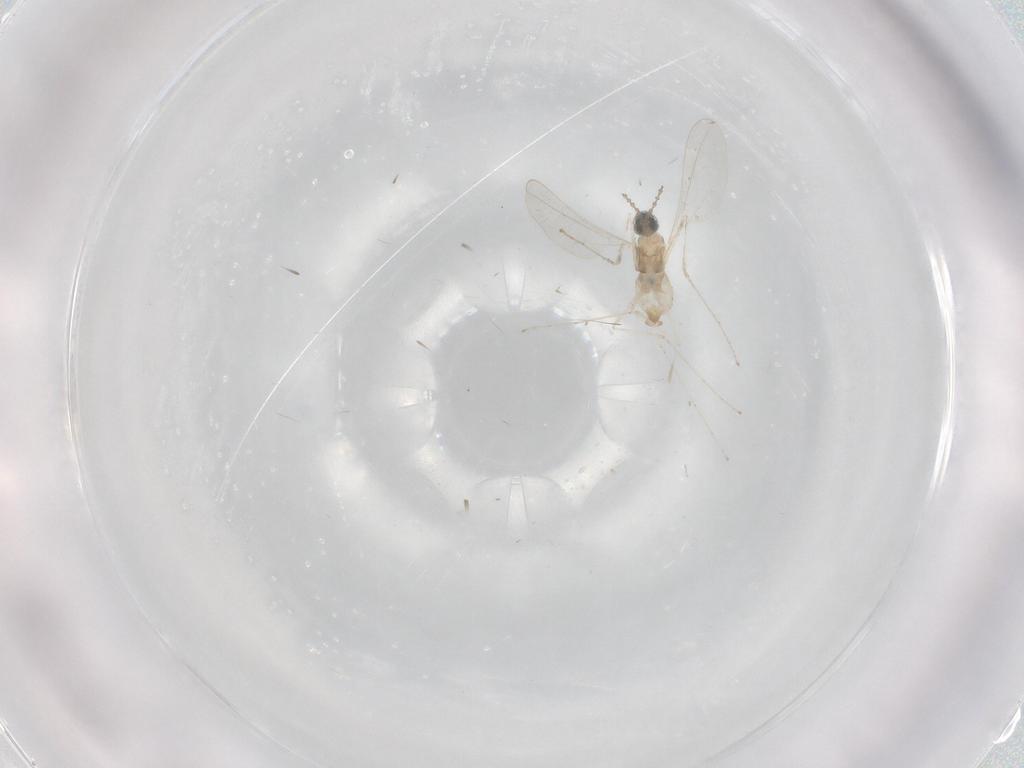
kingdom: Animalia
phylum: Arthropoda
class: Insecta
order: Diptera
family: Cecidomyiidae
